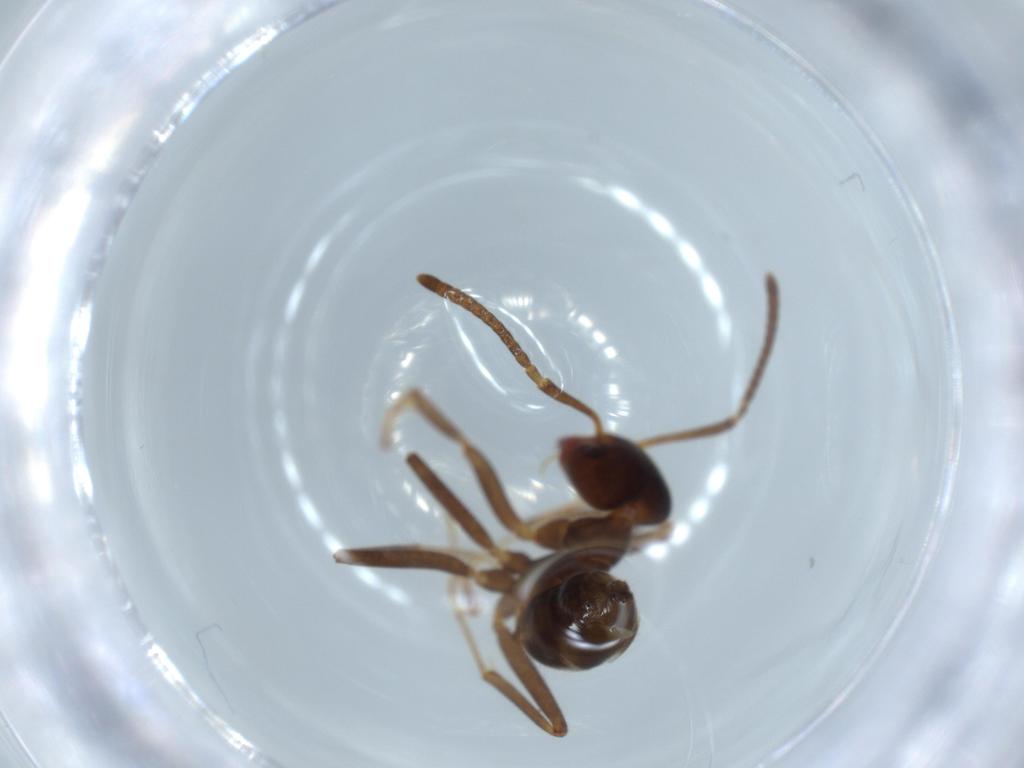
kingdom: Animalia
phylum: Arthropoda
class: Insecta
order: Hymenoptera
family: Formicidae
